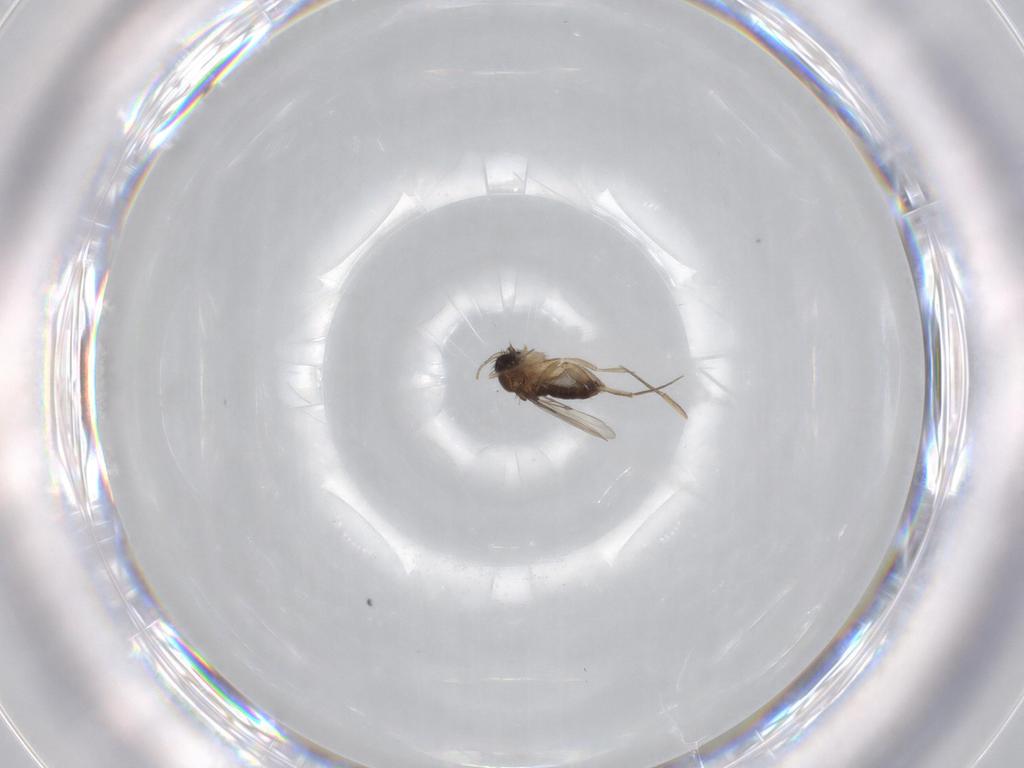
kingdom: Animalia
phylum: Arthropoda
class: Insecta
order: Diptera
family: Phoridae
